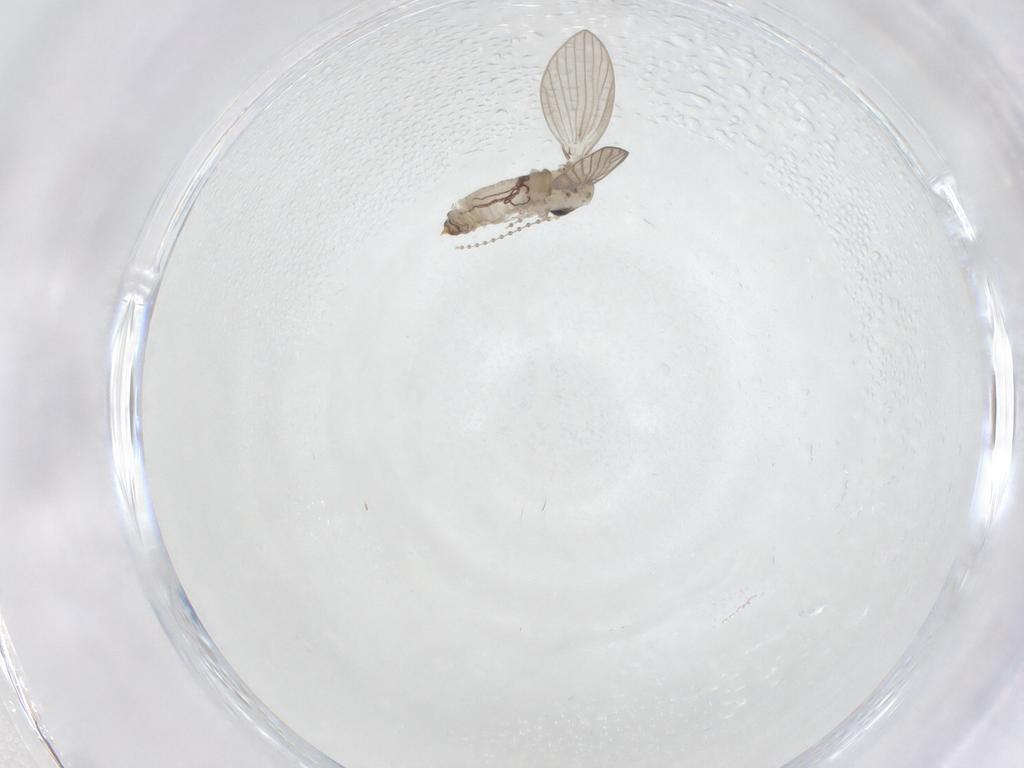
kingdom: Animalia
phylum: Arthropoda
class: Insecta
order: Diptera
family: Psychodidae
